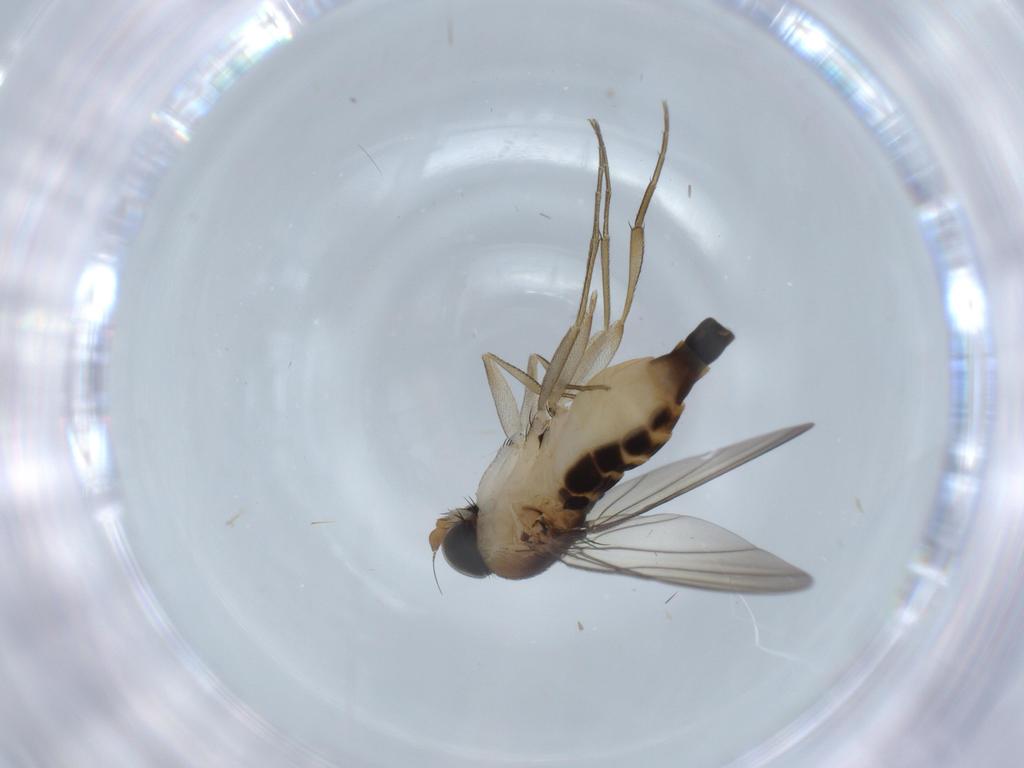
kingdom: Animalia
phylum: Arthropoda
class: Insecta
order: Diptera
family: Phoridae
